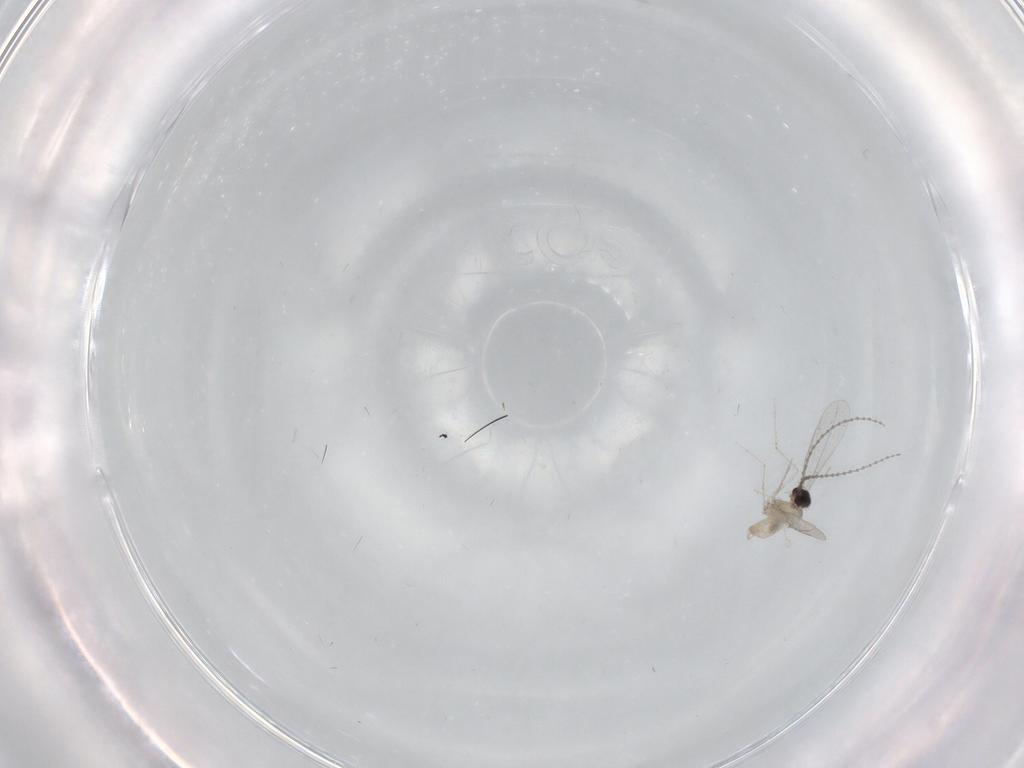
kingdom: Animalia
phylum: Arthropoda
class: Insecta
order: Diptera
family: Cecidomyiidae
